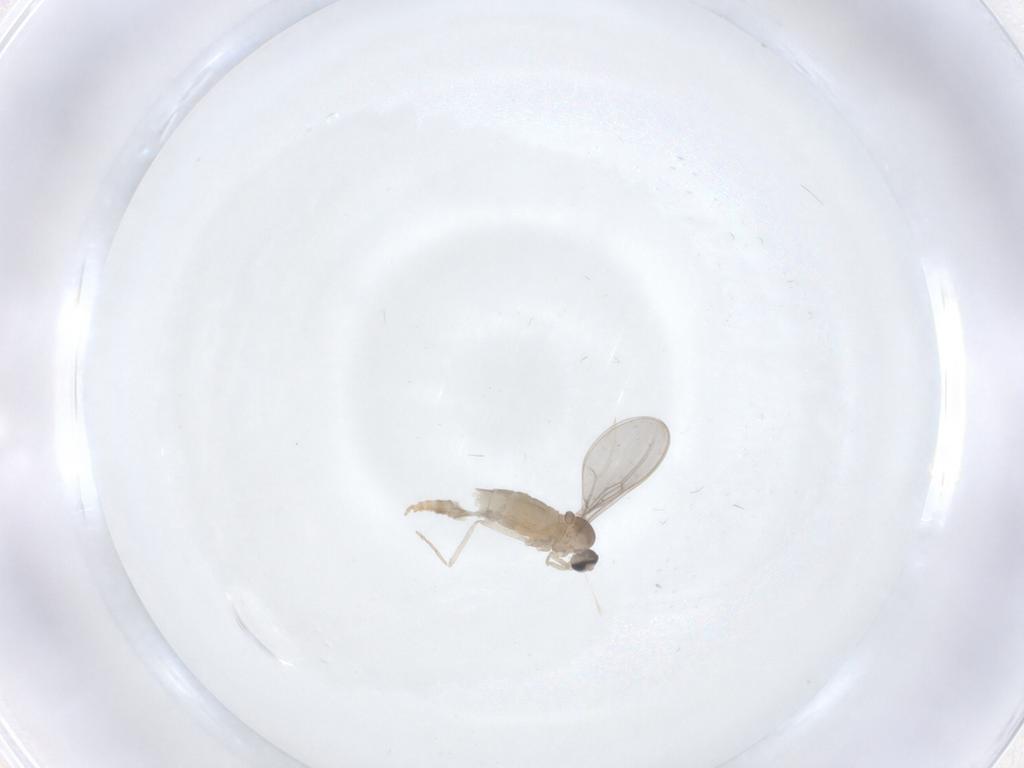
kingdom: Animalia
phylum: Arthropoda
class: Insecta
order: Diptera
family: Cecidomyiidae
